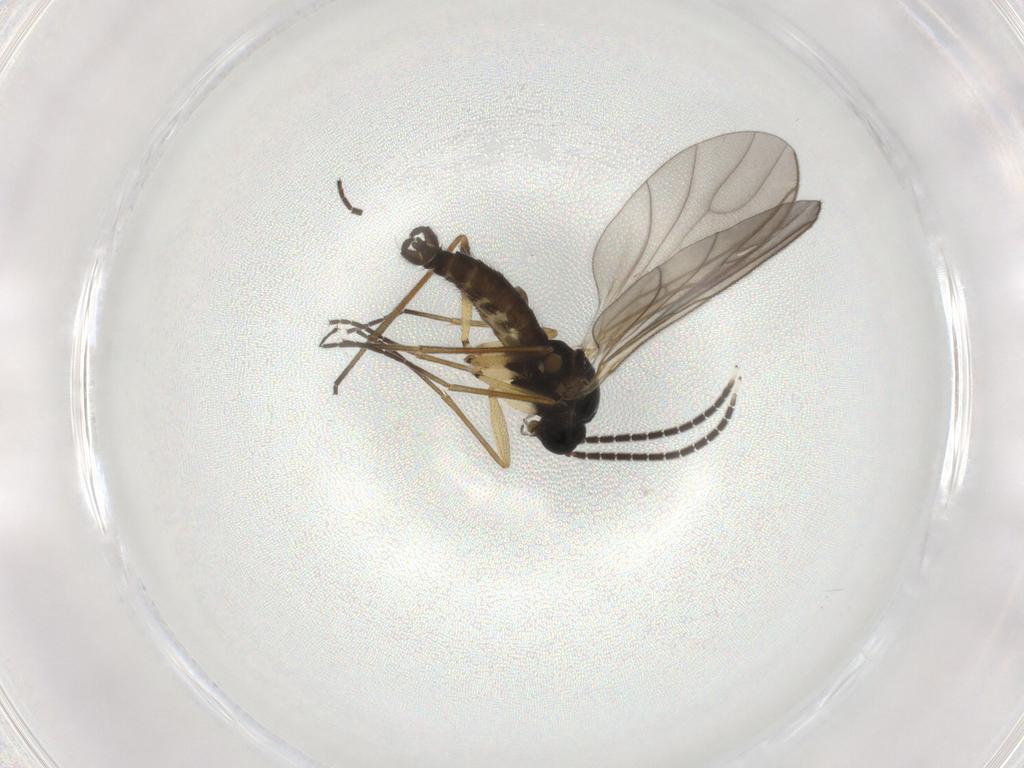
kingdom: Animalia
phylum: Arthropoda
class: Insecta
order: Diptera
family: Sciaridae
